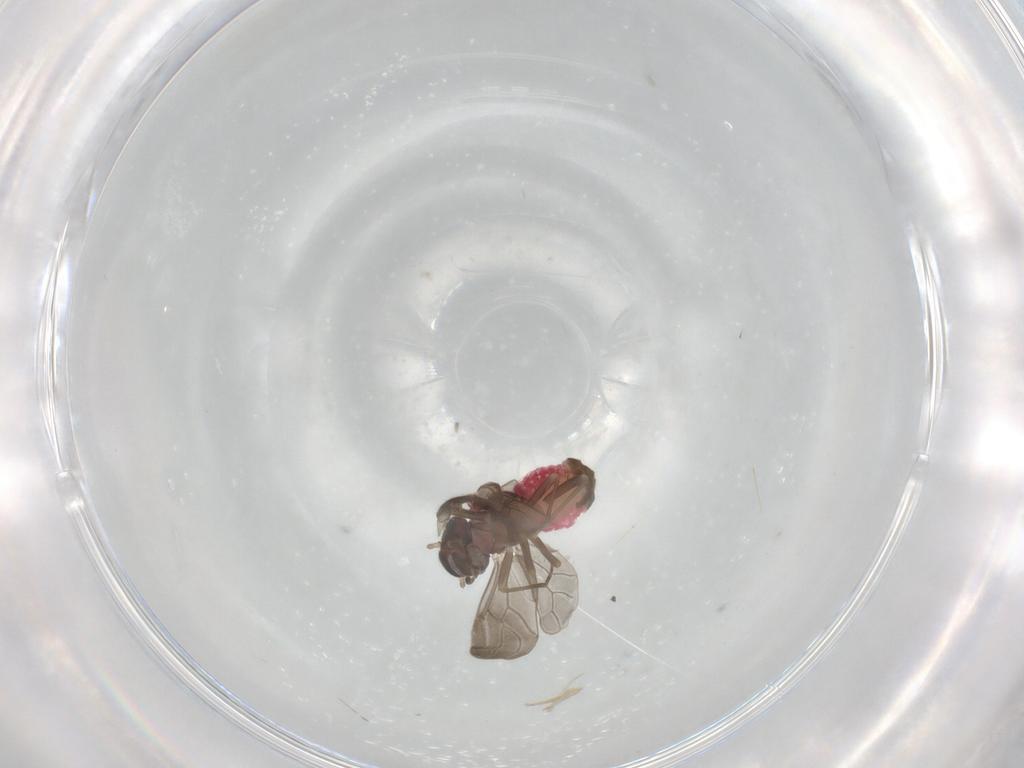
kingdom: Animalia
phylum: Arthropoda
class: Insecta
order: Psocodea
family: Archipsocidae
